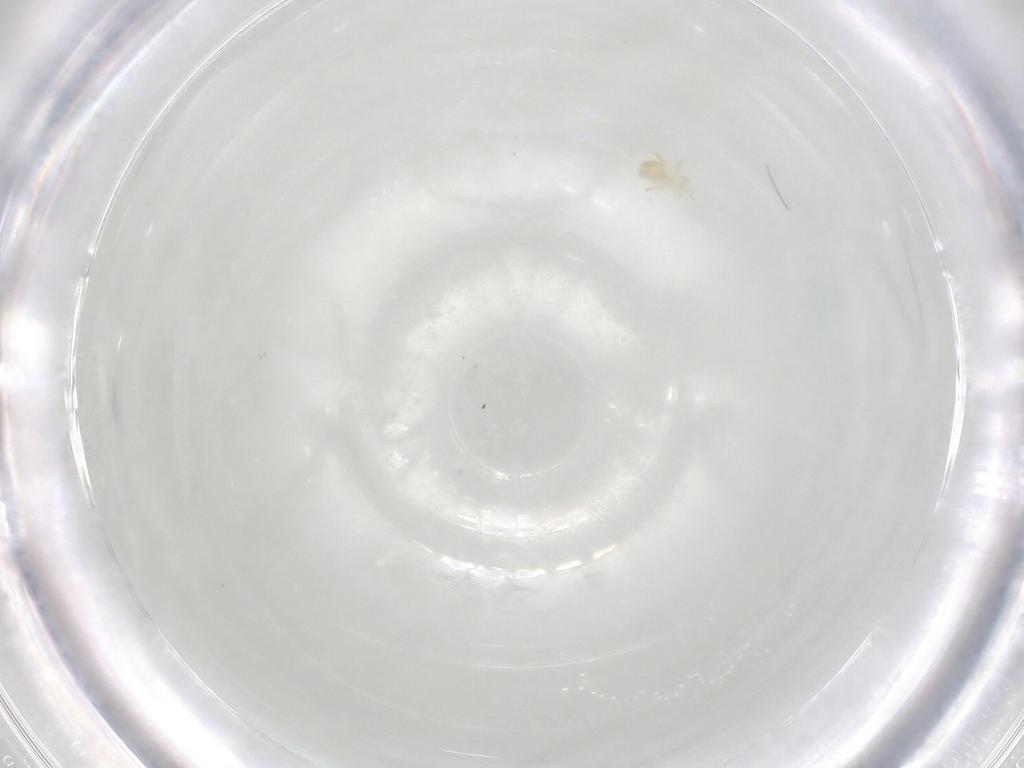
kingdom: Animalia
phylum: Arthropoda
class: Arachnida
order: Mesostigmata
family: Phytoseiidae
